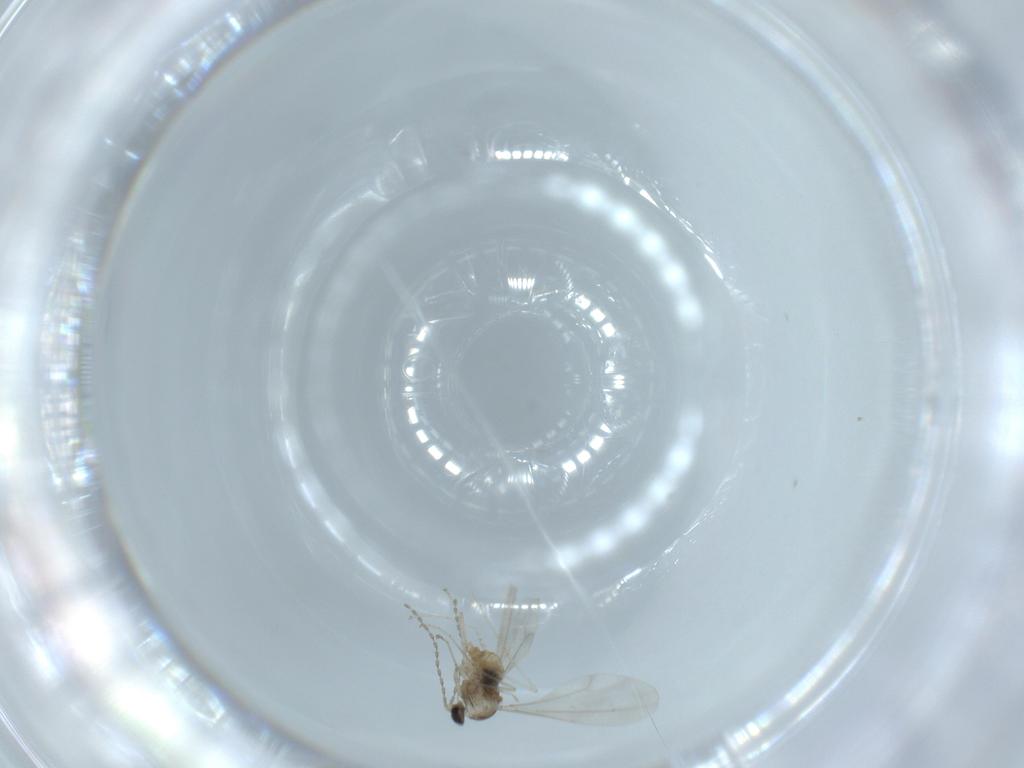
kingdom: Animalia
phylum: Arthropoda
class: Insecta
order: Diptera
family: Chironomidae
